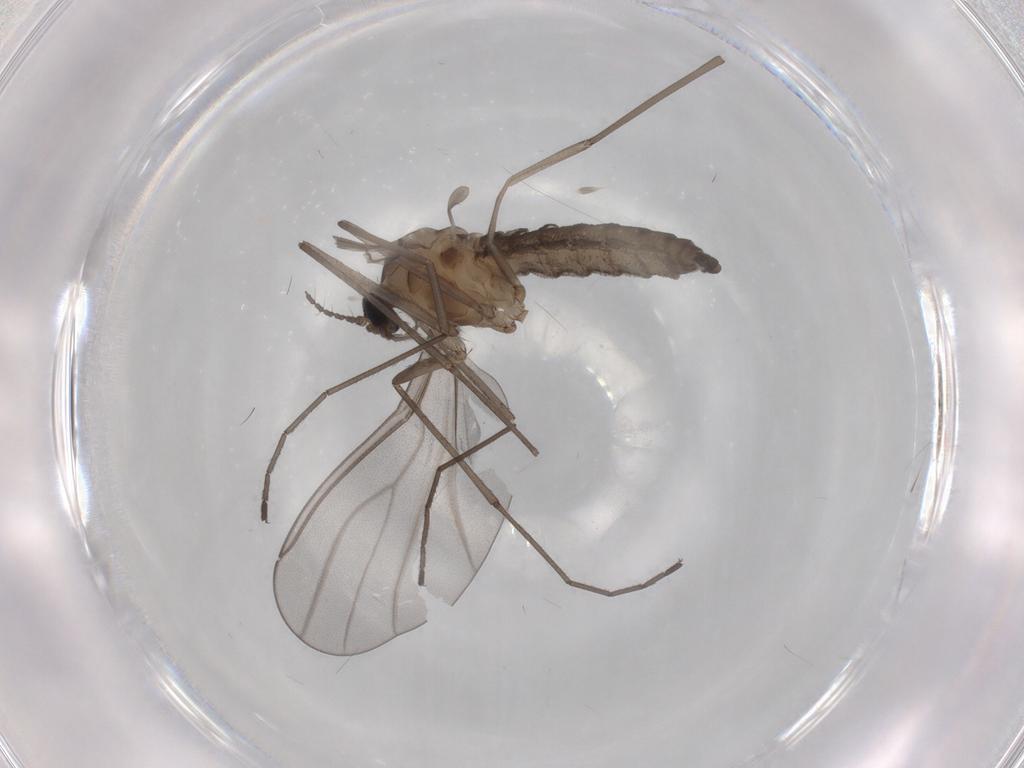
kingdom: Animalia
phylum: Arthropoda
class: Insecta
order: Diptera
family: Cecidomyiidae
